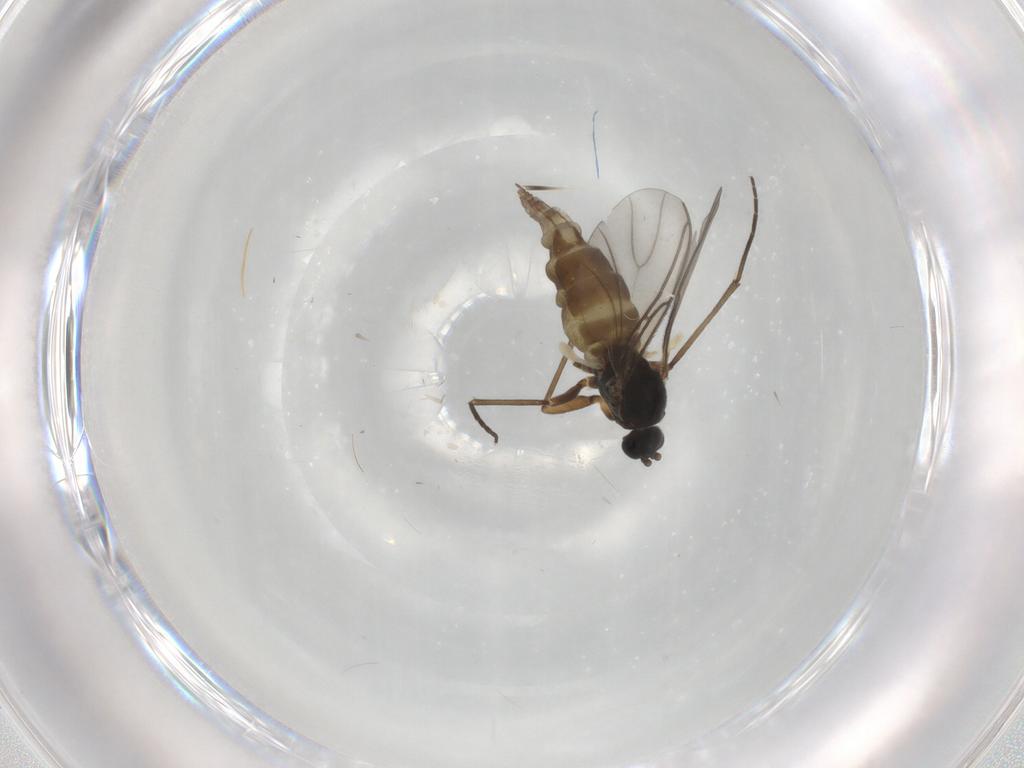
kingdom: Animalia
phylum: Arthropoda
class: Insecta
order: Diptera
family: Sciaridae
